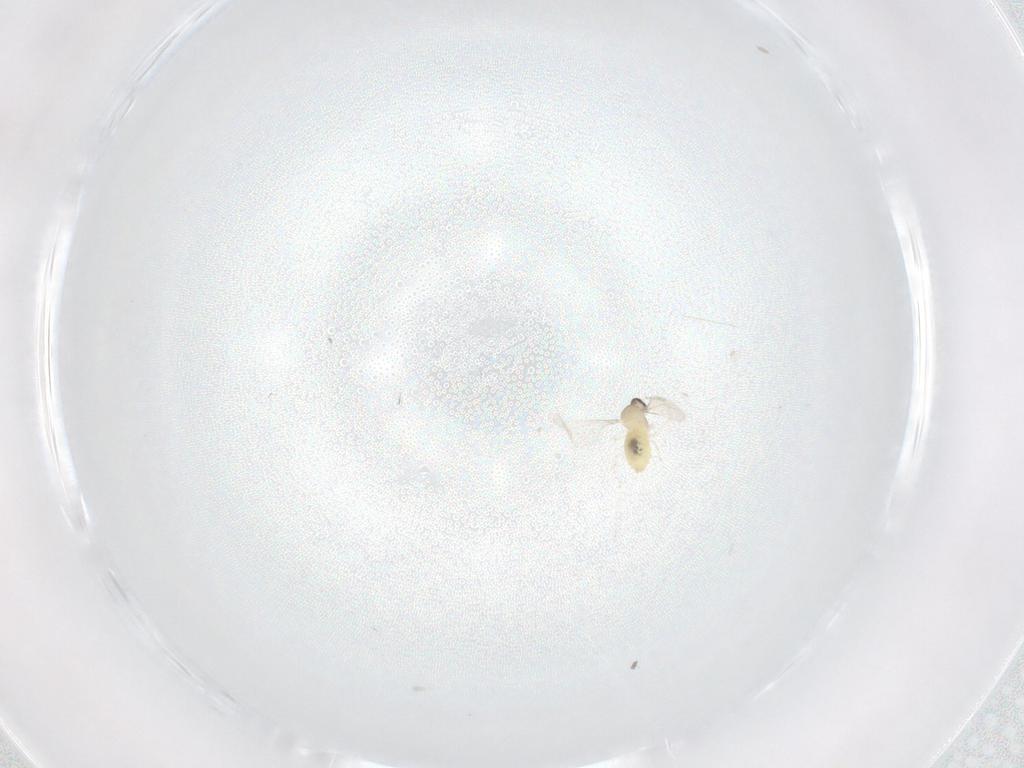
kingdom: Animalia
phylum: Arthropoda
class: Insecta
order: Diptera
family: Cecidomyiidae
